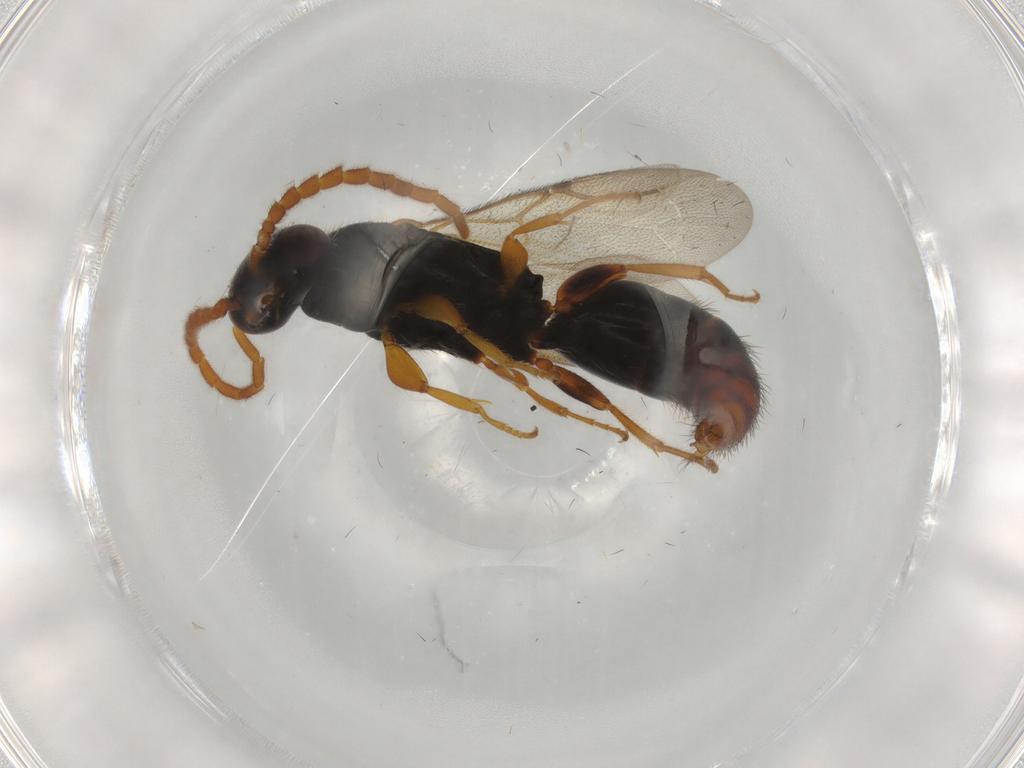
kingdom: Animalia
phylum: Arthropoda
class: Insecta
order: Hymenoptera
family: Bethylidae
